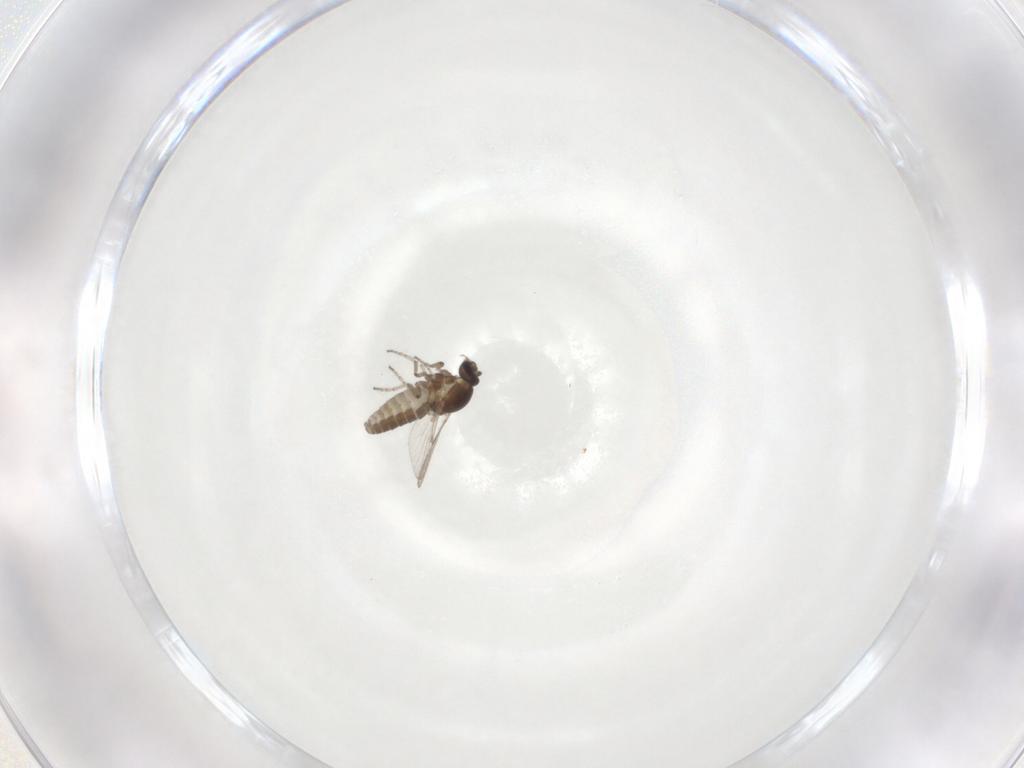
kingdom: Animalia
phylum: Arthropoda
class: Insecta
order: Diptera
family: Ceratopogonidae
